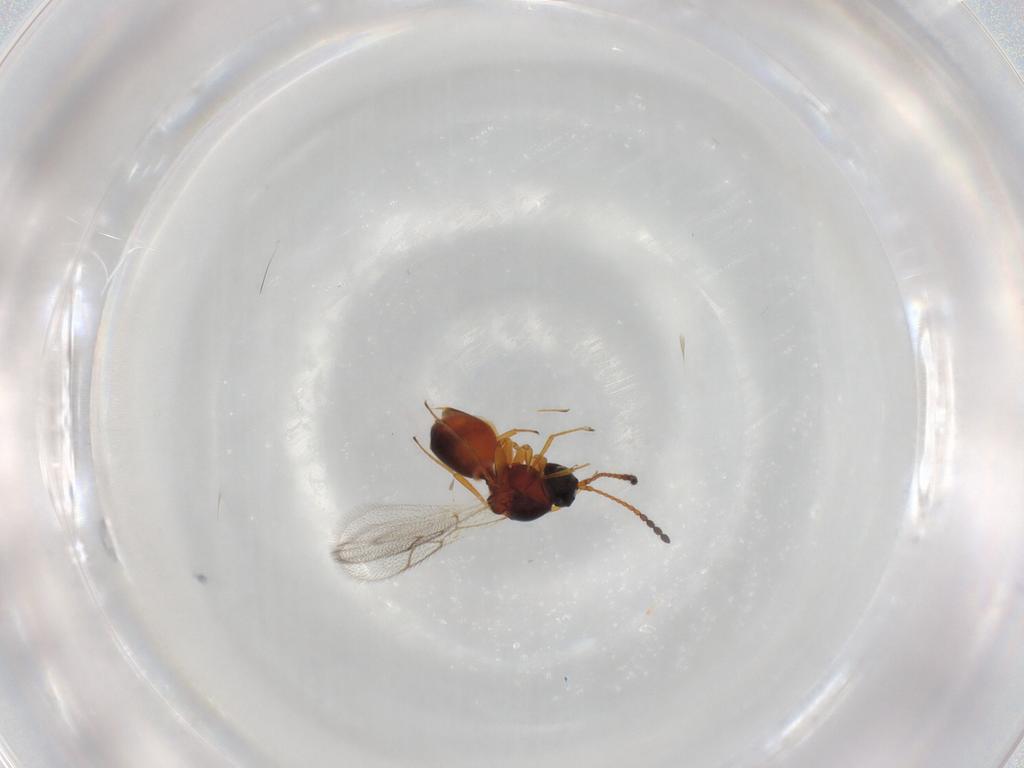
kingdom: Animalia
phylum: Arthropoda
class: Insecta
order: Hymenoptera
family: Figitidae
